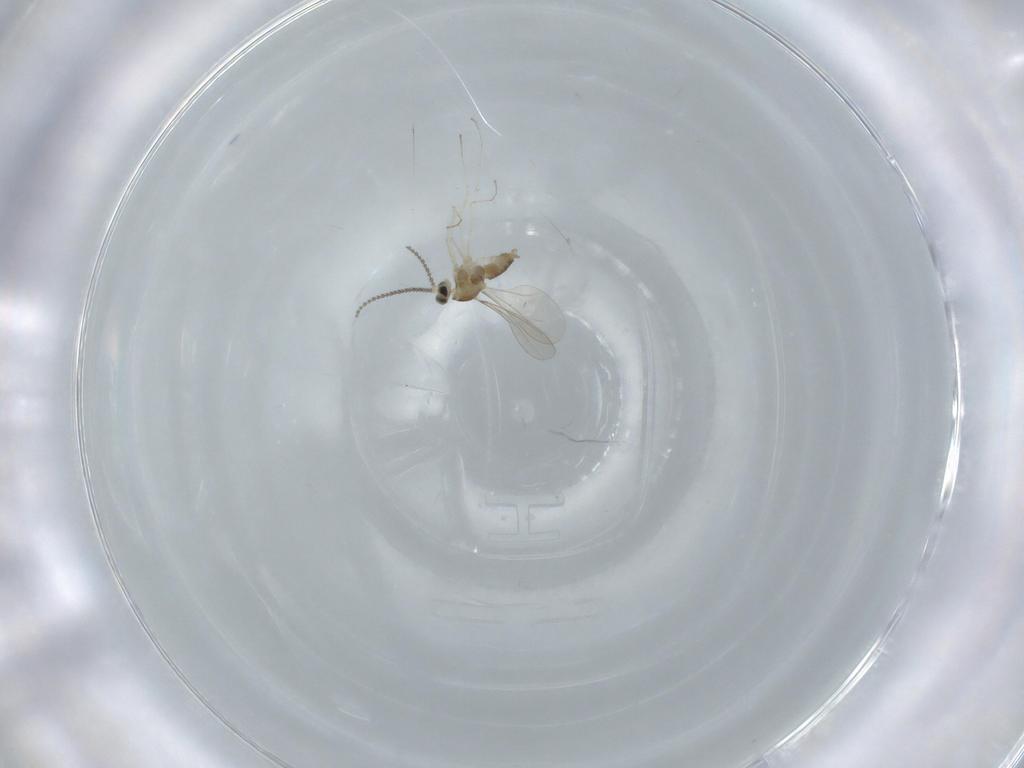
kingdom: Animalia
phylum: Arthropoda
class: Insecta
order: Diptera
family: Cecidomyiidae
